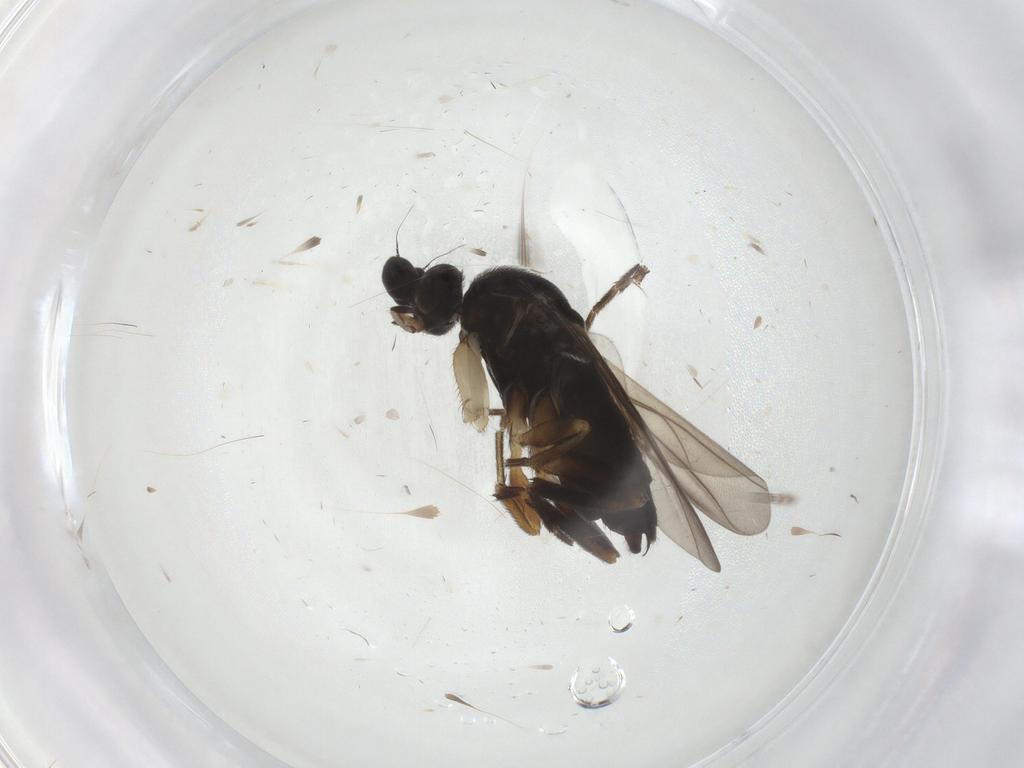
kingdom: Animalia
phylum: Arthropoda
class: Insecta
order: Diptera
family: Phoridae
